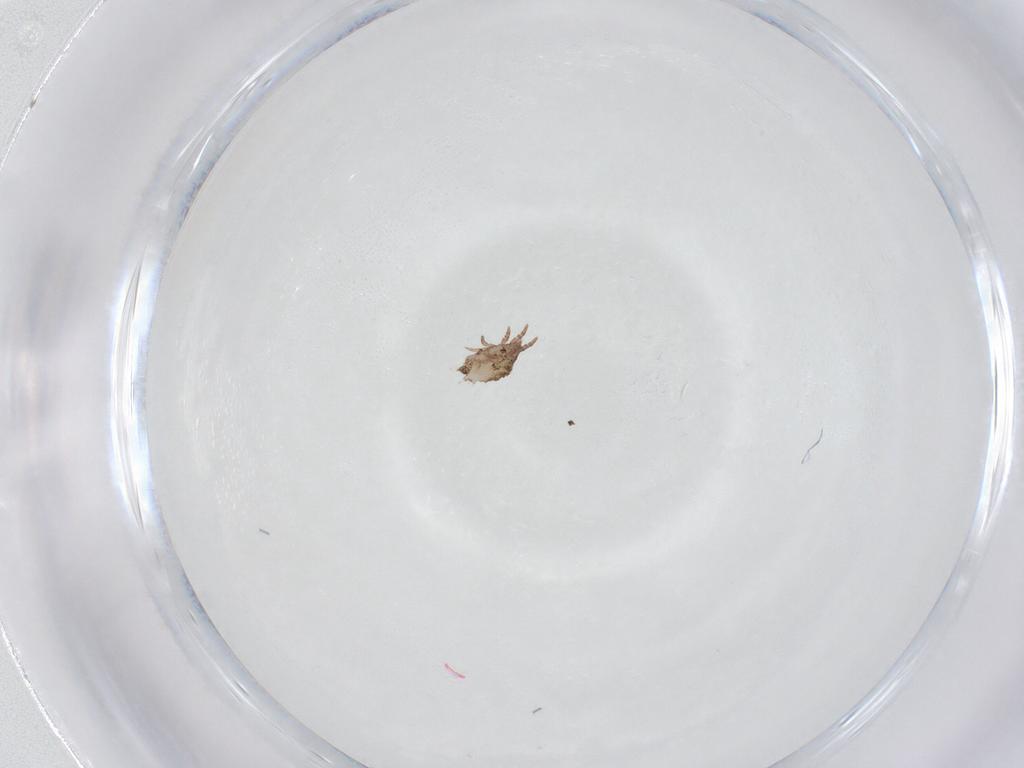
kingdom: Animalia
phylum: Arthropoda
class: Arachnida
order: Sarcoptiformes
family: Crotoniidae
